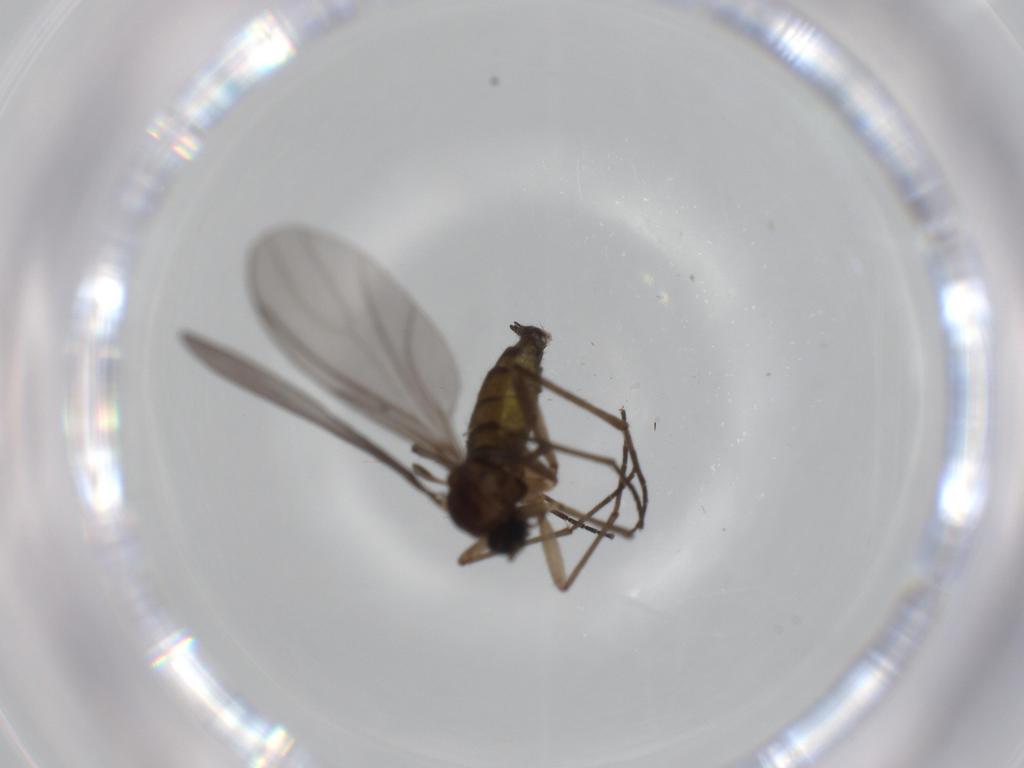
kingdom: Animalia
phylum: Arthropoda
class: Insecta
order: Diptera
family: Sciaridae
